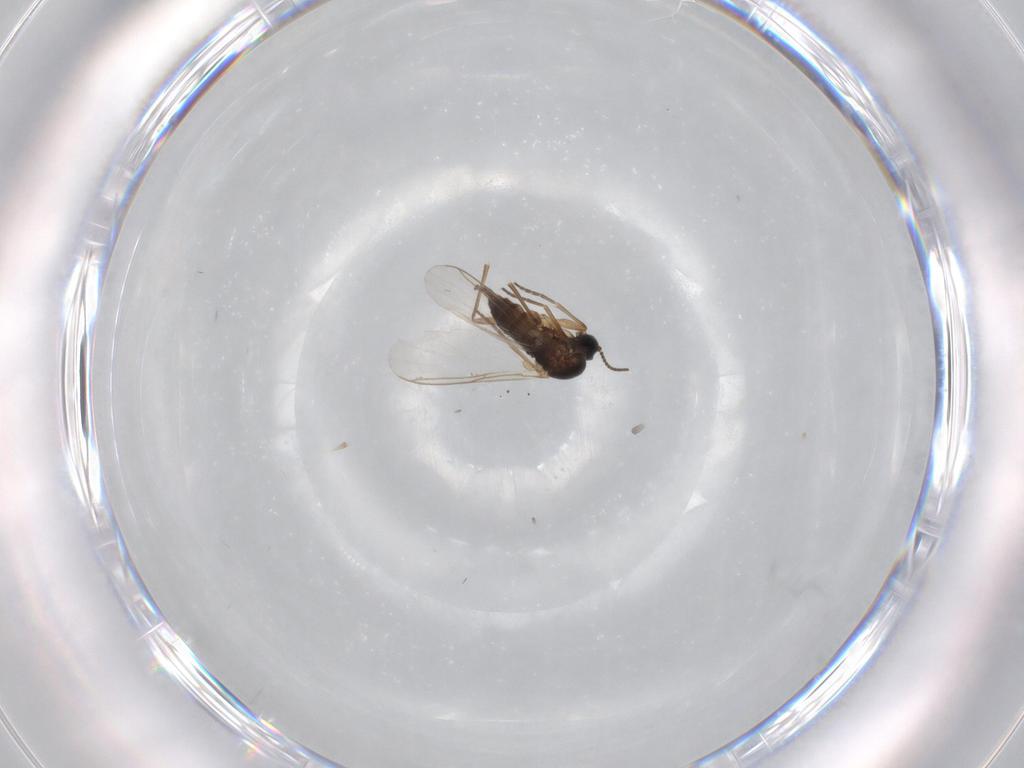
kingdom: Animalia
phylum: Arthropoda
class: Insecta
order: Diptera
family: Sciaridae
